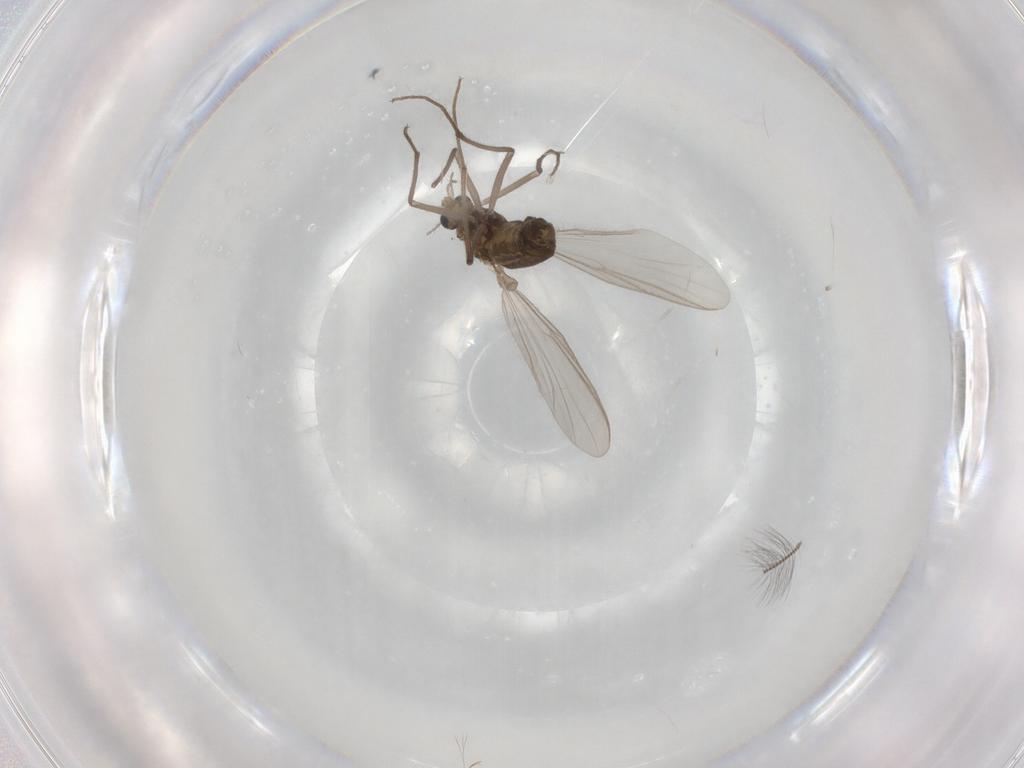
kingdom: Animalia
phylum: Arthropoda
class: Insecta
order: Diptera
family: Chironomidae
